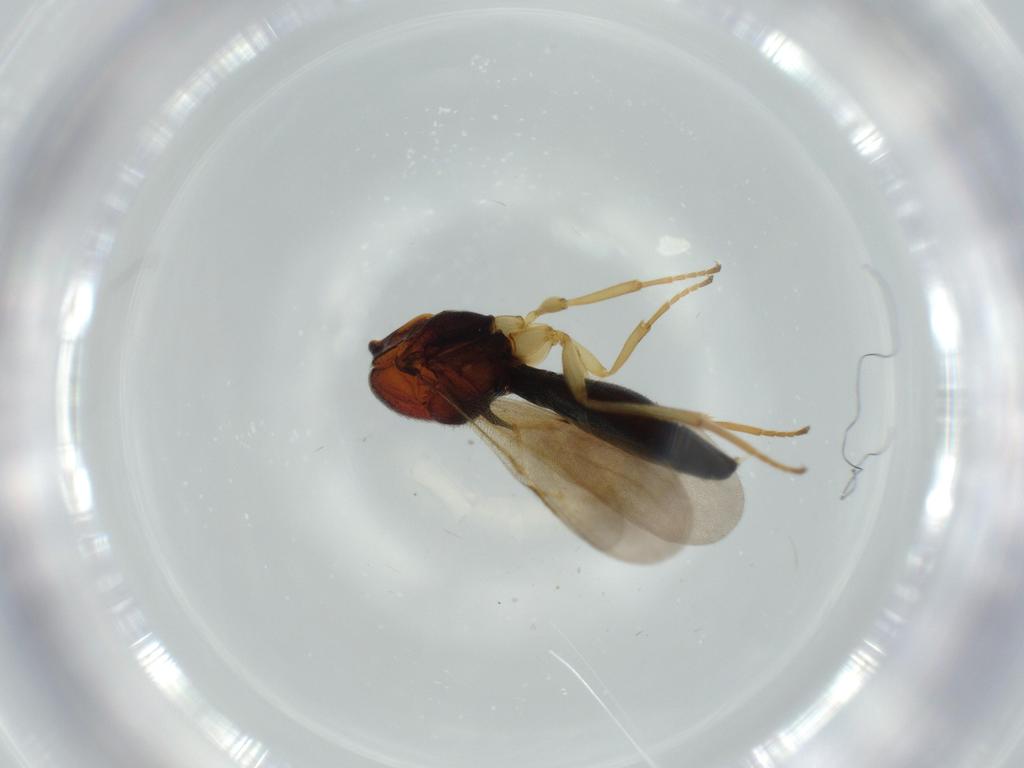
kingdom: Animalia
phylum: Arthropoda
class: Insecta
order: Hymenoptera
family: Formicidae
